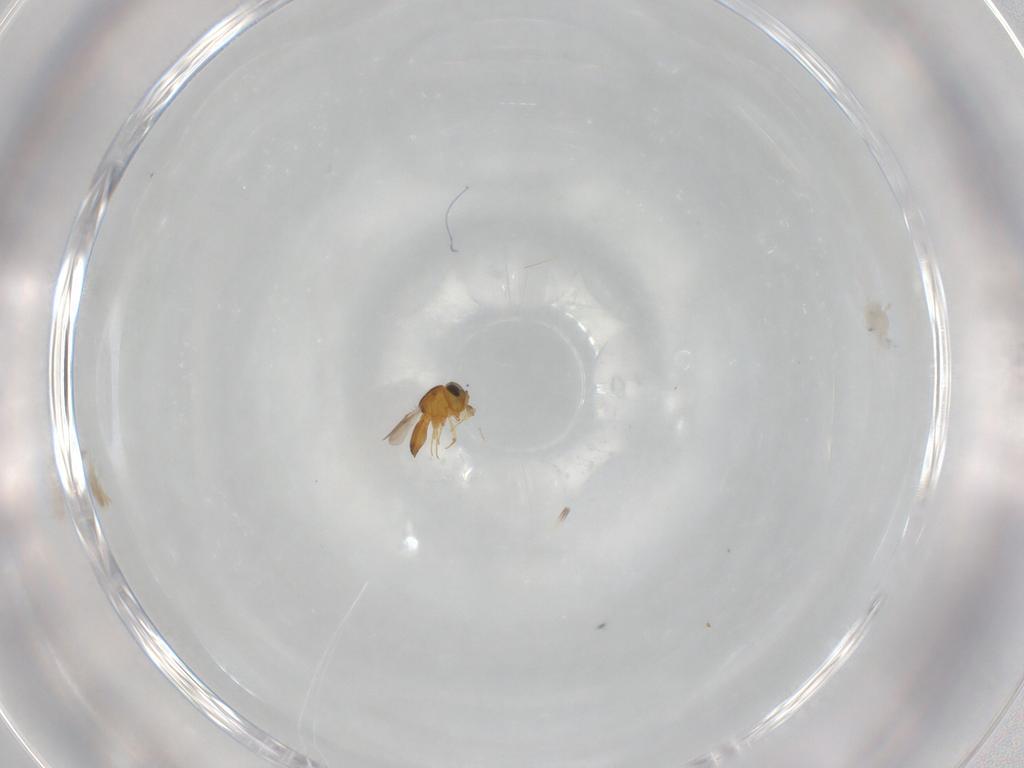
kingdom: Animalia
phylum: Arthropoda
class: Insecta
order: Hymenoptera
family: Scelionidae
